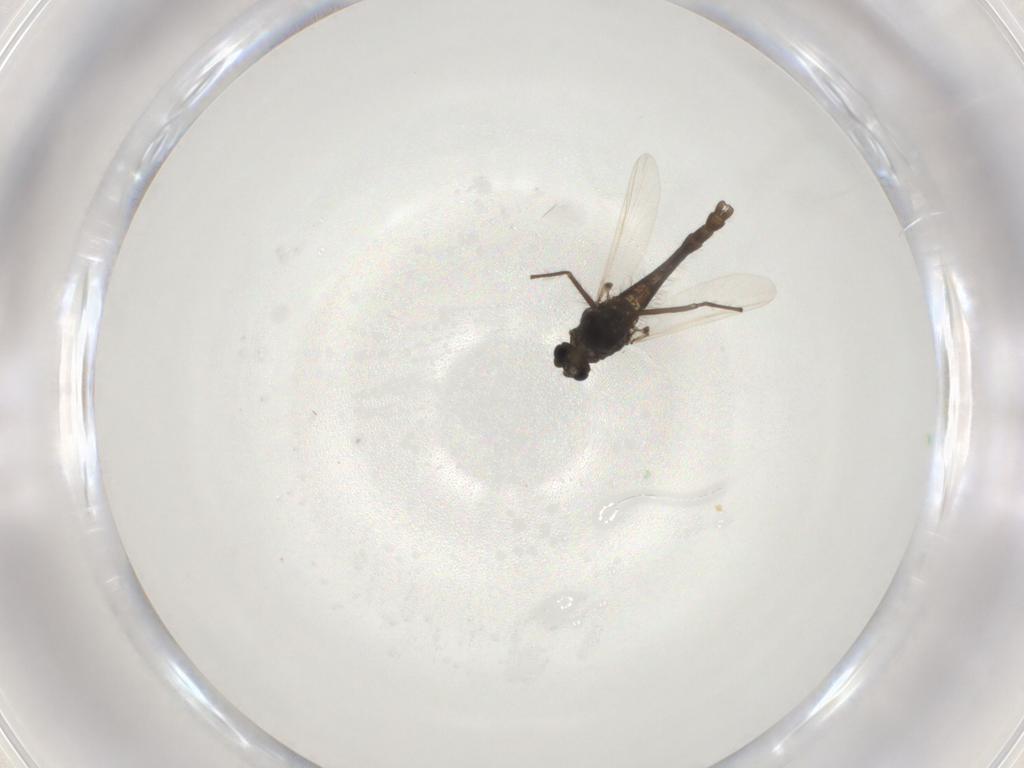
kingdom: Animalia
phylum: Arthropoda
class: Insecta
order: Diptera
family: Chironomidae
